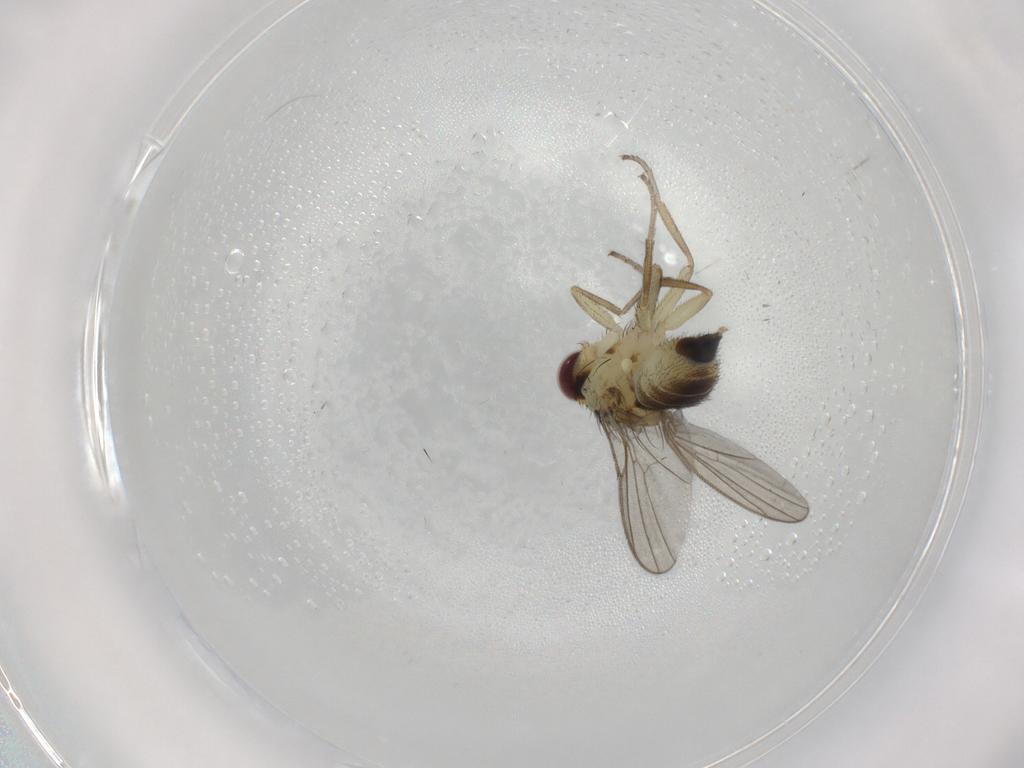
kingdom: Animalia
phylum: Arthropoda
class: Insecta
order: Diptera
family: Agromyzidae
